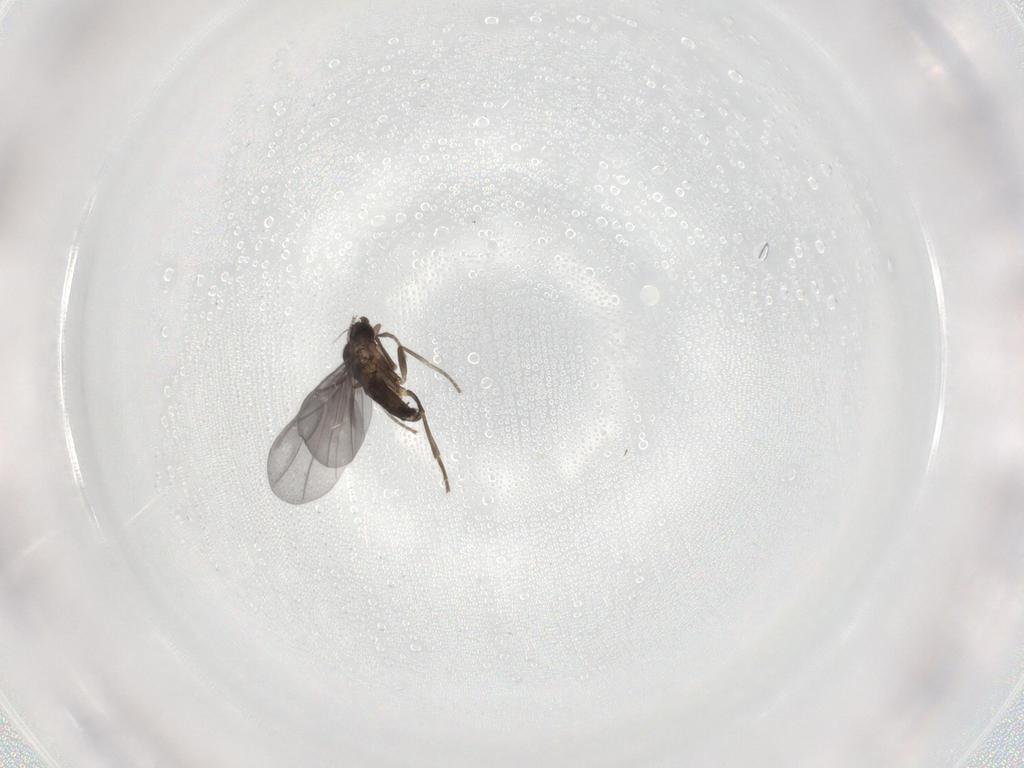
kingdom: Animalia
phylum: Arthropoda
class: Insecta
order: Diptera
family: Phoridae
